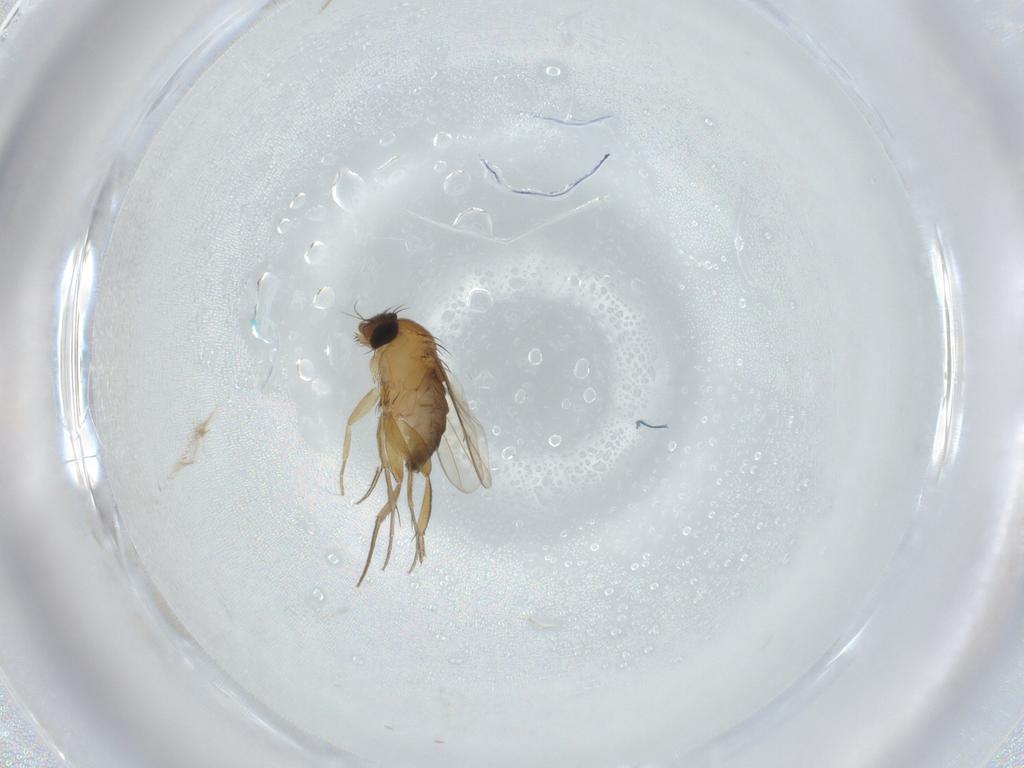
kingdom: Animalia
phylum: Arthropoda
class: Insecta
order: Diptera
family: Phoridae
